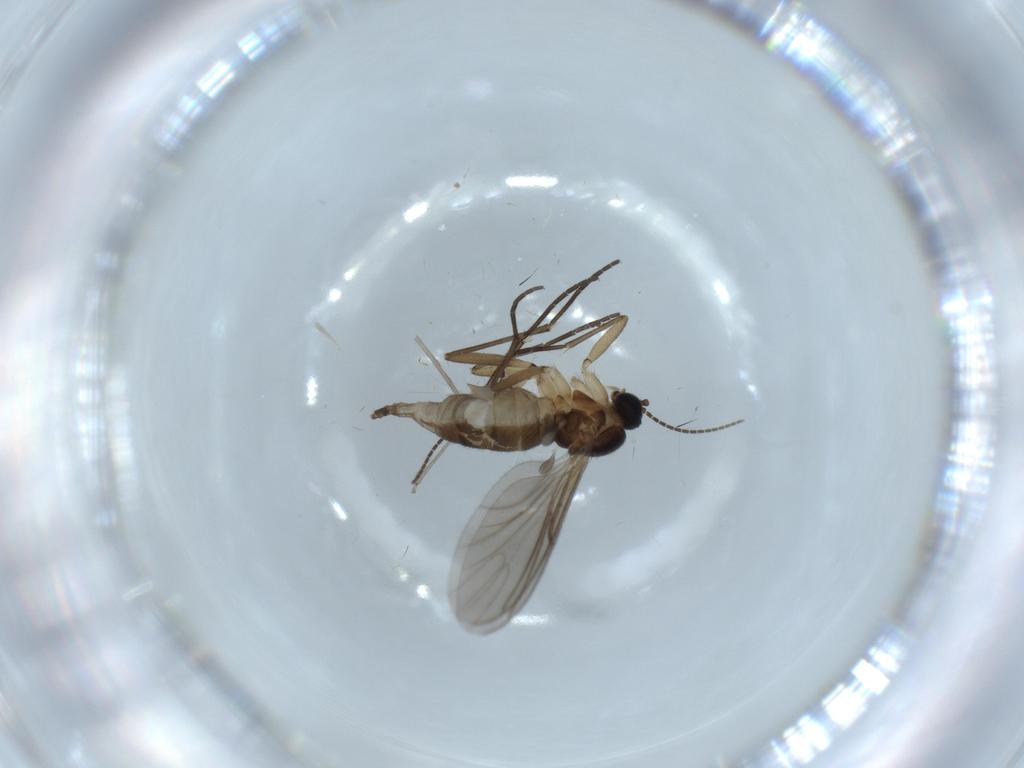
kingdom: Animalia
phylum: Arthropoda
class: Insecta
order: Diptera
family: Sciaridae
